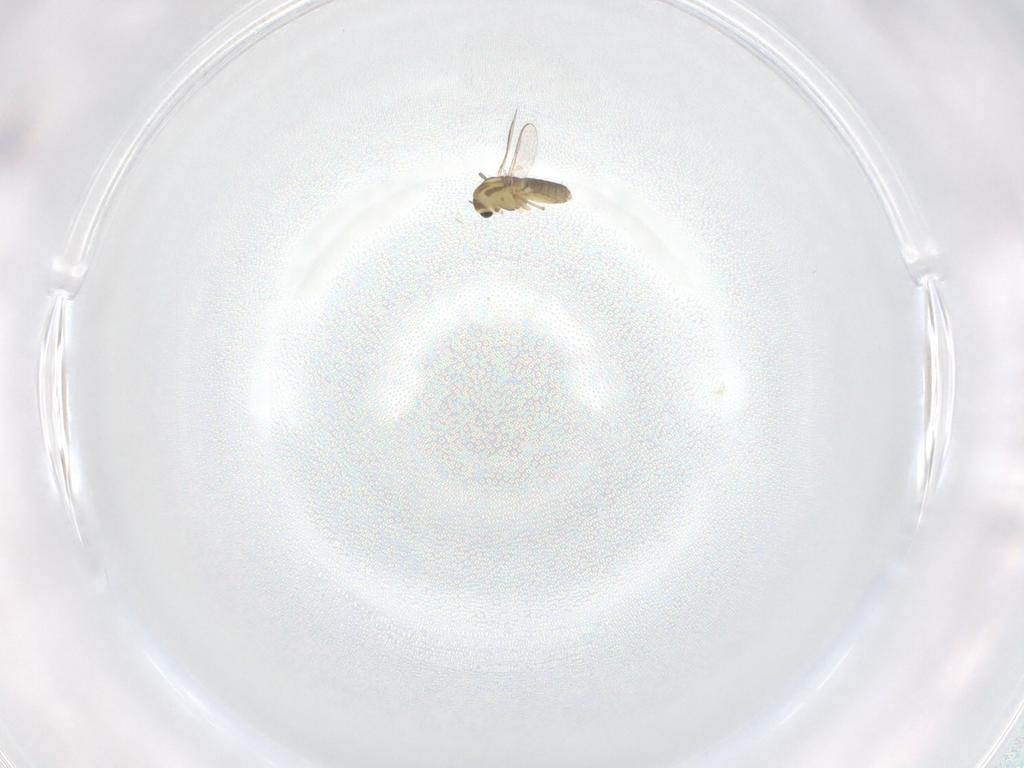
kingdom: Animalia
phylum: Arthropoda
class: Insecta
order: Diptera
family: Chironomidae
